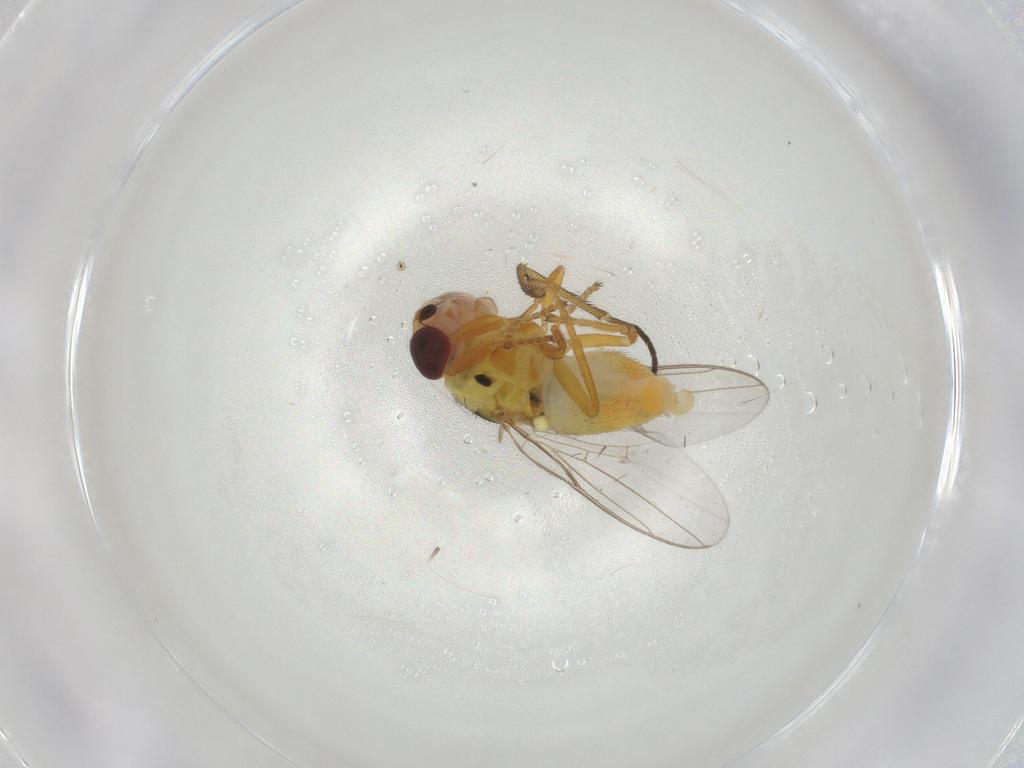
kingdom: Animalia
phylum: Arthropoda
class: Insecta
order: Diptera
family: Chloropidae
